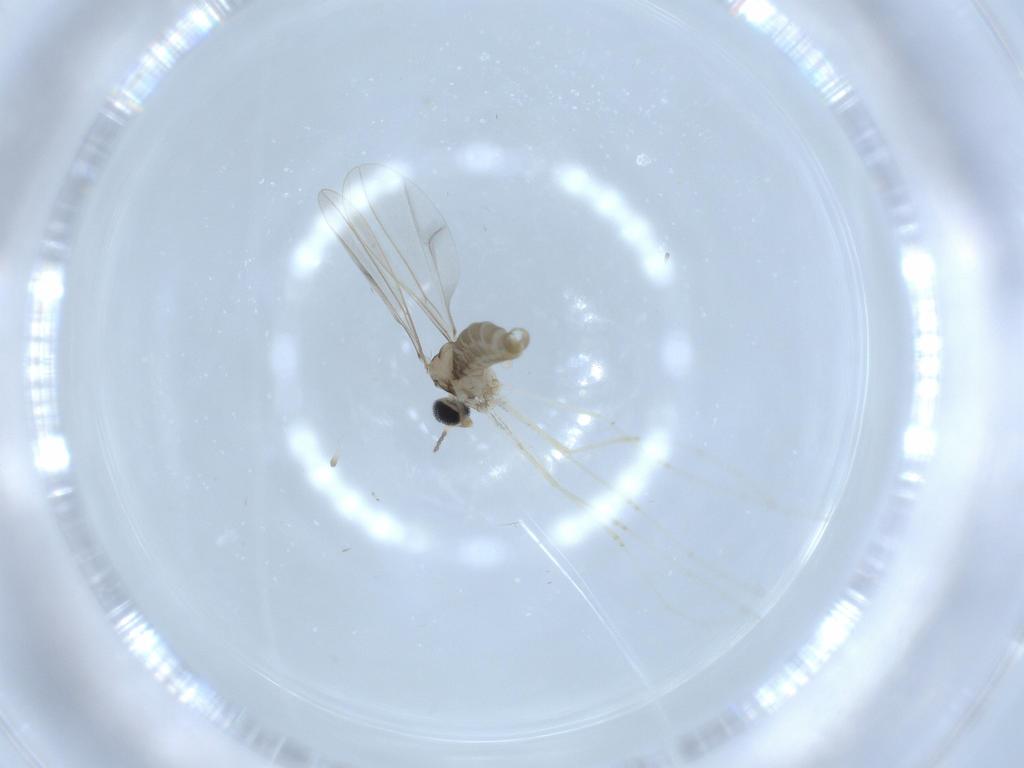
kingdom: Animalia
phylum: Arthropoda
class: Insecta
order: Diptera
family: Cecidomyiidae
